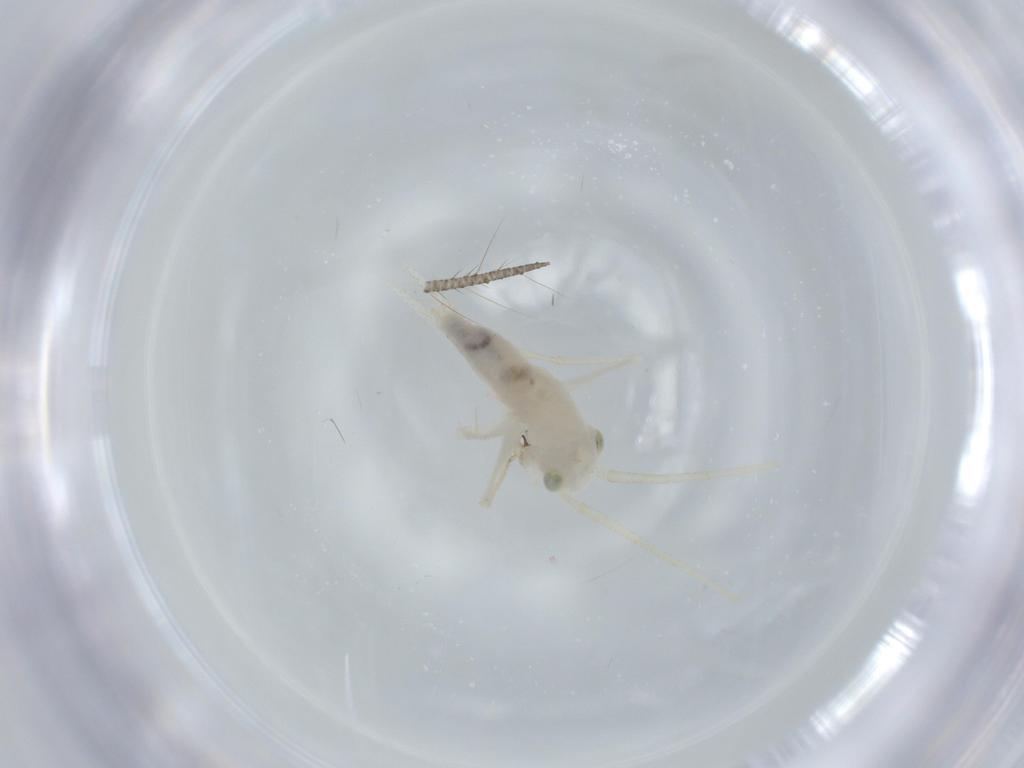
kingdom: Animalia
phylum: Arthropoda
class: Insecta
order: Orthoptera
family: Trigonidiidae
